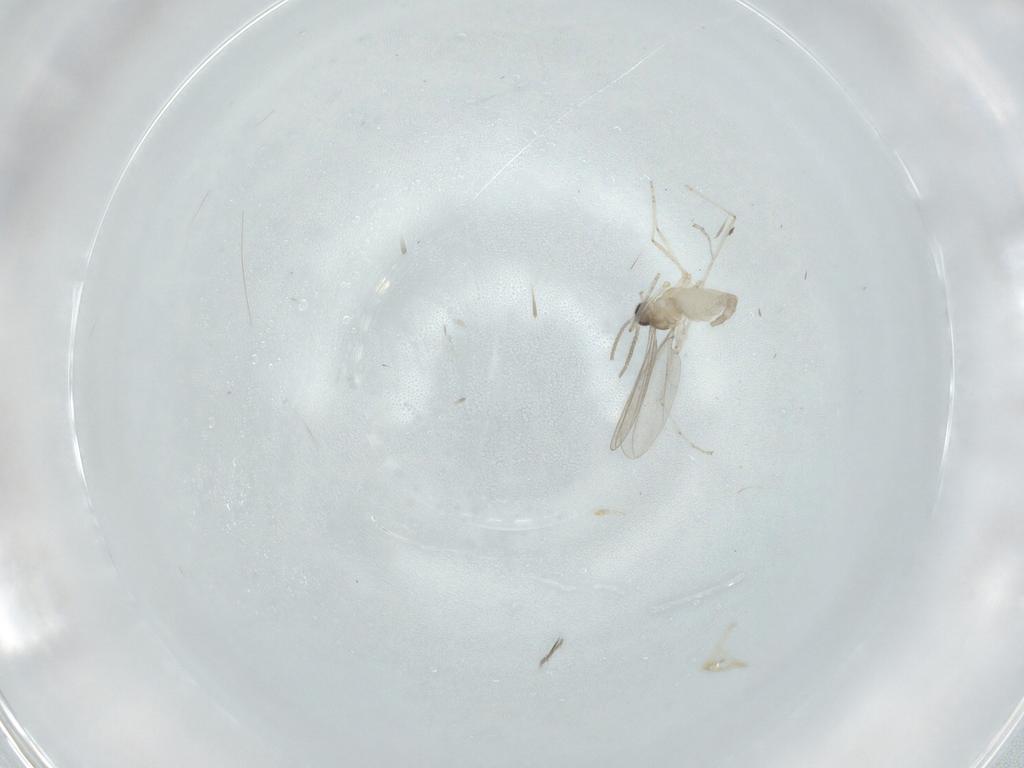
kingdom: Animalia
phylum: Arthropoda
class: Insecta
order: Diptera
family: Cecidomyiidae
